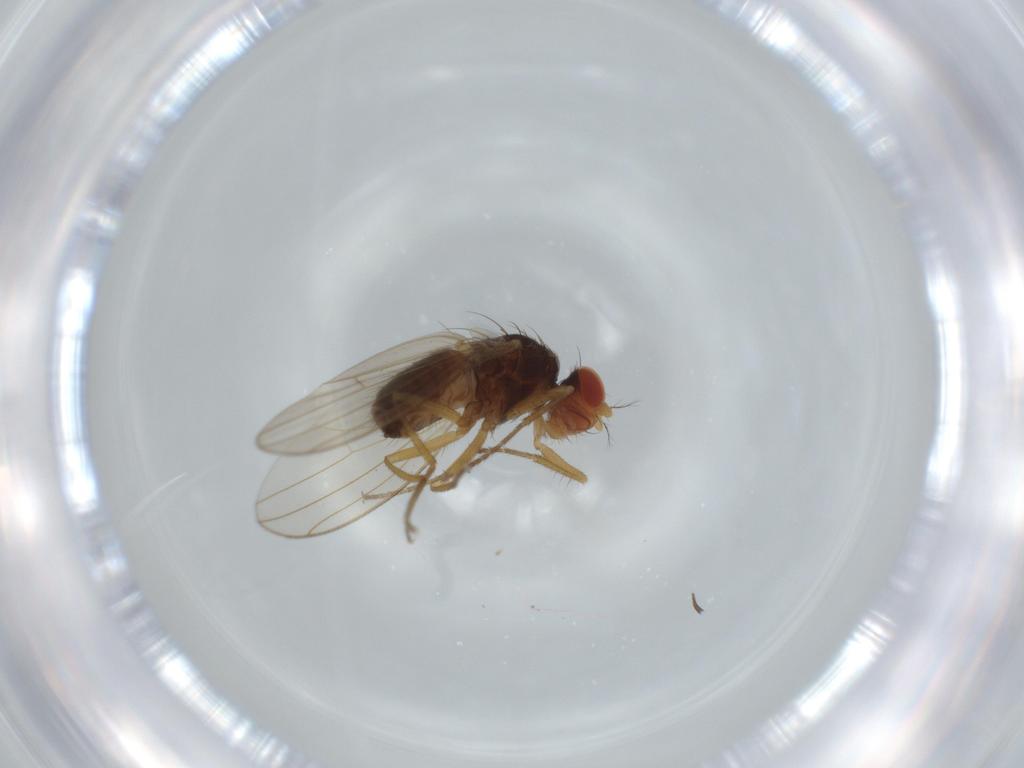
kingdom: Animalia
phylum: Arthropoda
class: Insecta
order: Diptera
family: Drosophilidae
